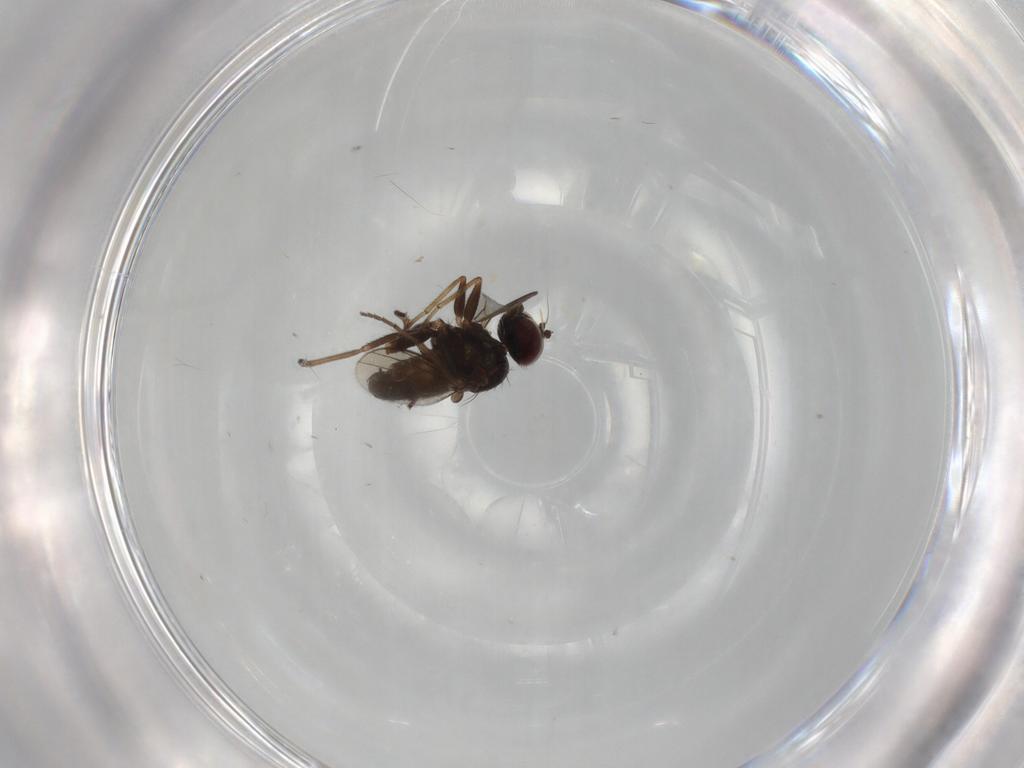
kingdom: Animalia
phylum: Arthropoda
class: Insecta
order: Diptera
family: Dolichopodidae
